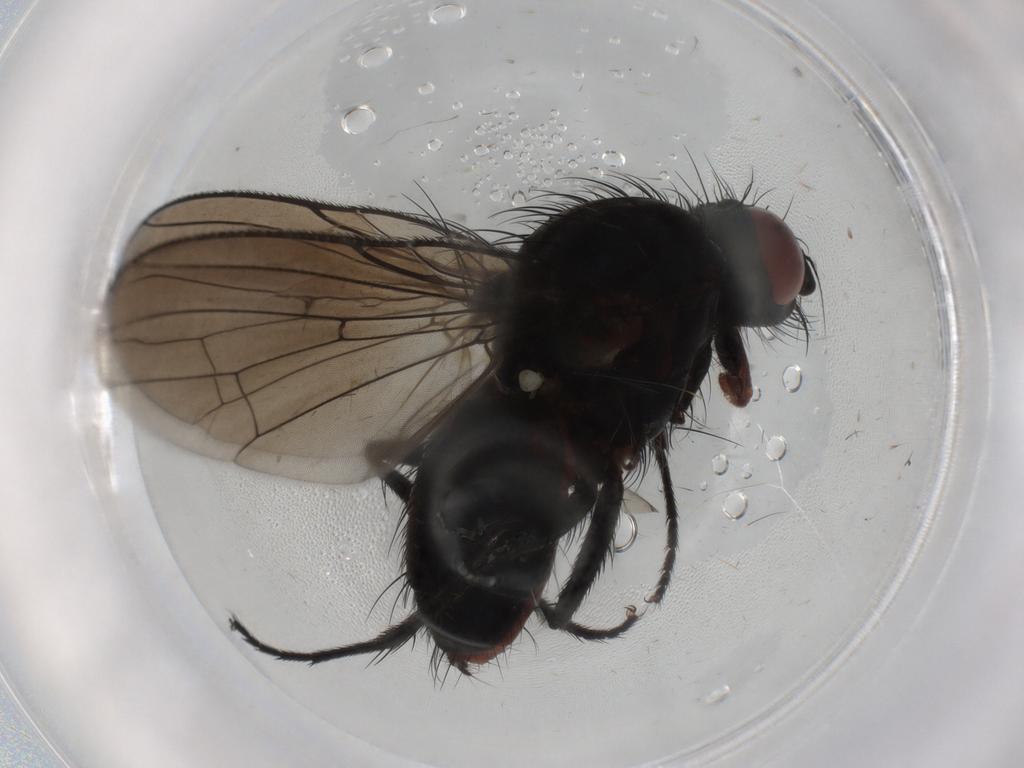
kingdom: Animalia
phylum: Arthropoda
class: Insecta
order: Diptera
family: Anthomyiidae
